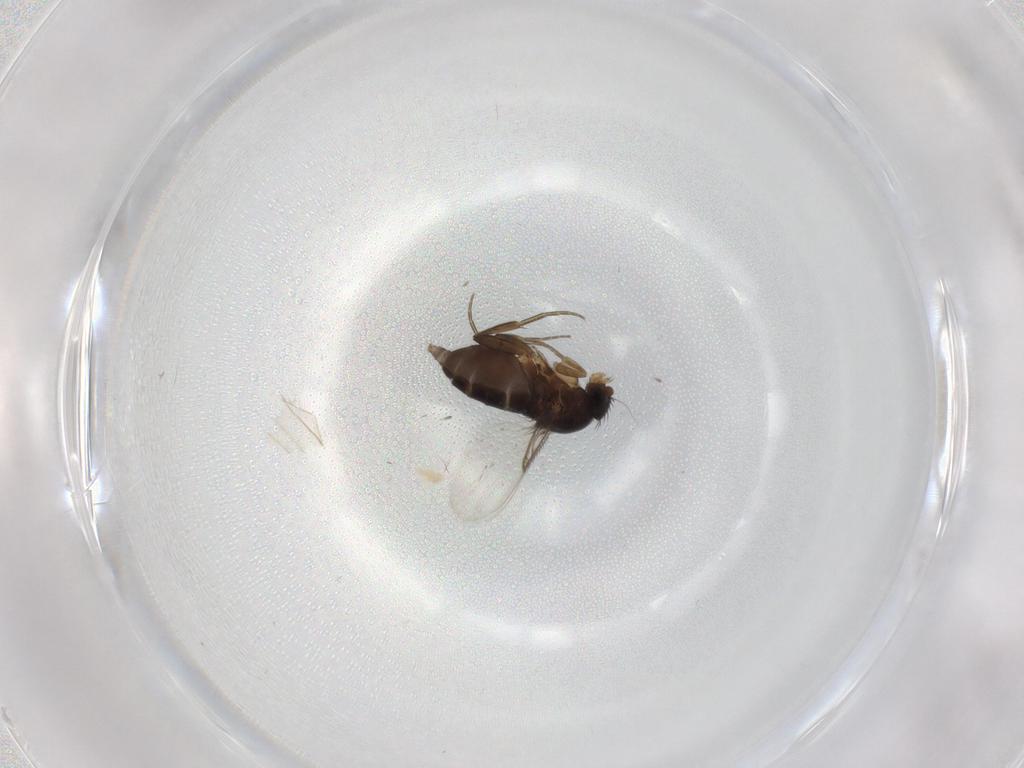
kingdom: Animalia
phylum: Arthropoda
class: Insecta
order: Diptera
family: Phoridae
